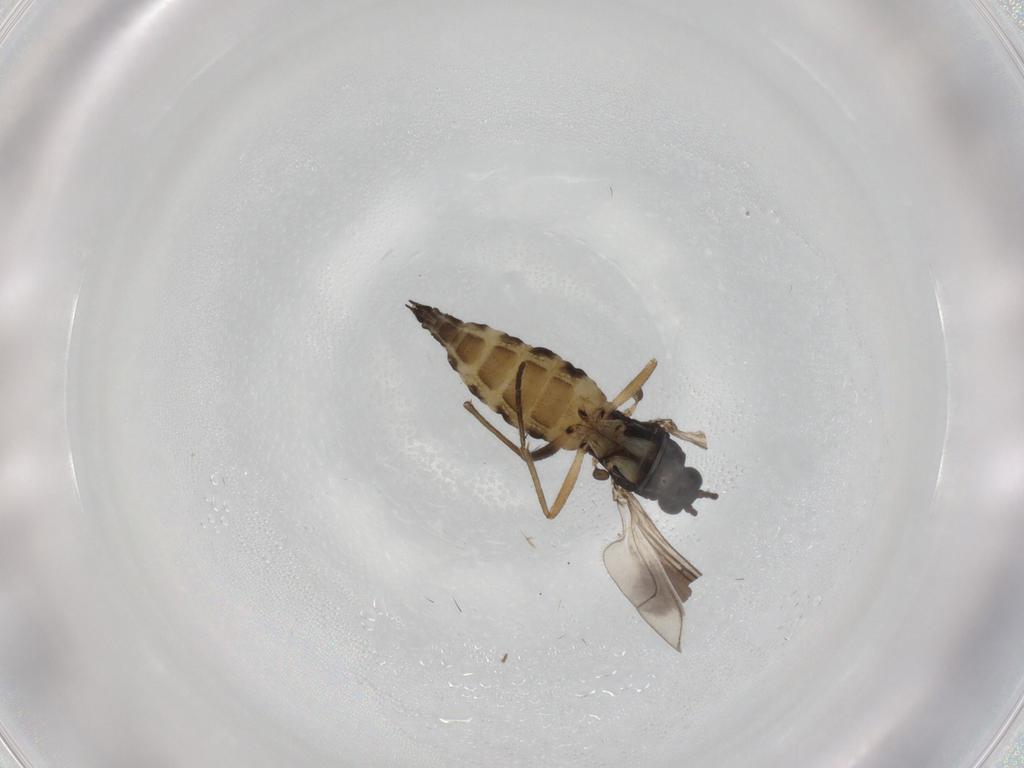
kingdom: Animalia
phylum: Arthropoda
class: Insecta
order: Diptera
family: Sciaridae
